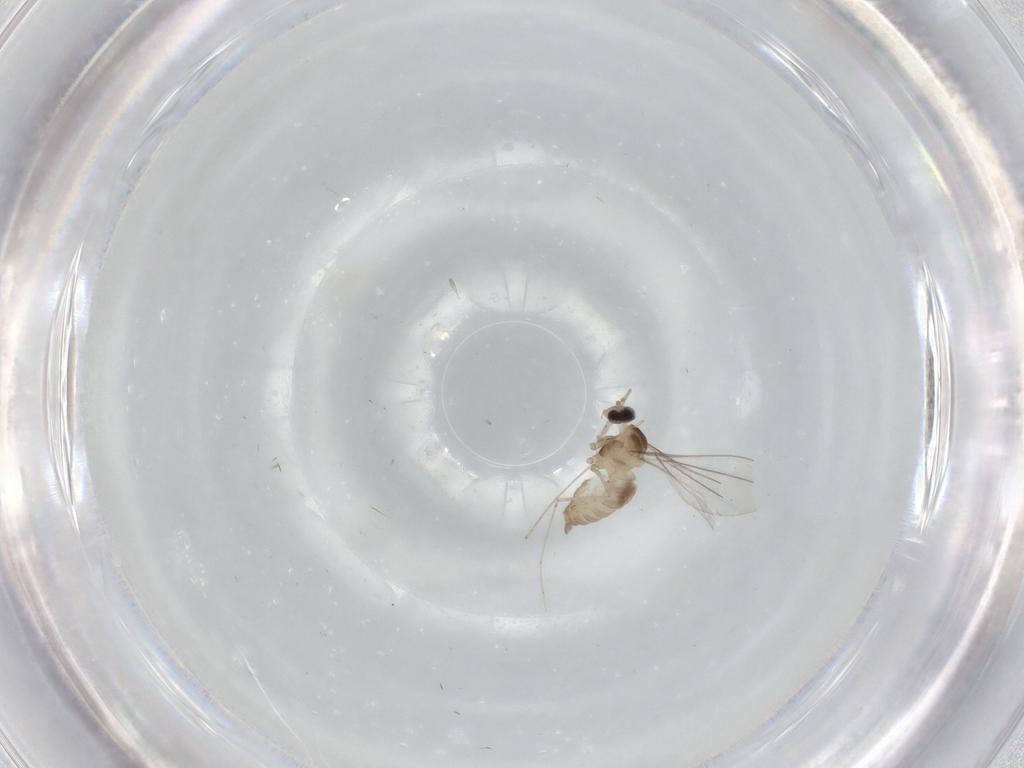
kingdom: Animalia
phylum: Arthropoda
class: Insecta
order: Diptera
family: Cecidomyiidae
